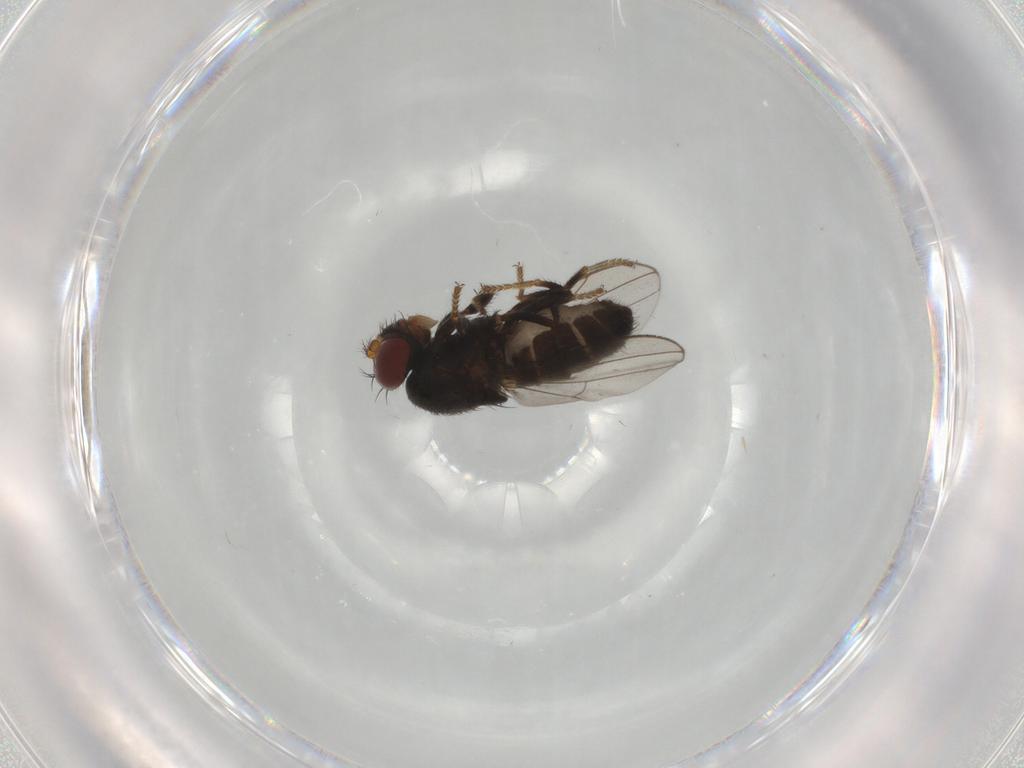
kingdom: Animalia
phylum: Arthropoda
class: Insecta
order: Diptera
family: Ephydridae
